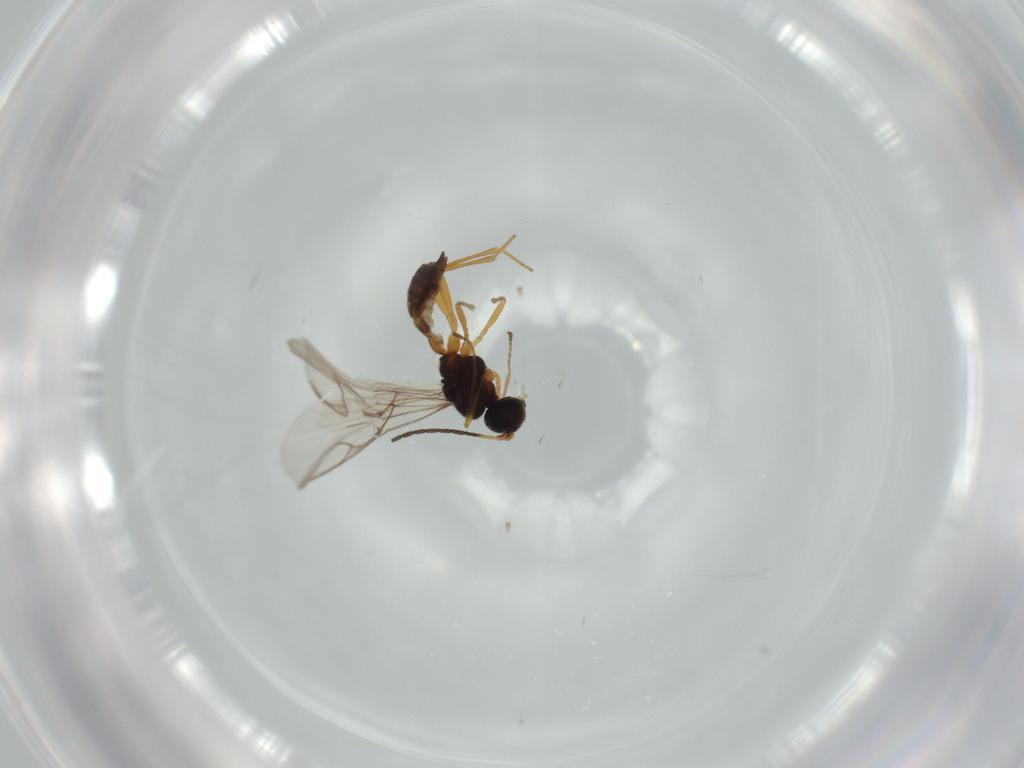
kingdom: Animalia
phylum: Arthropoda
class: Insecta
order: Hymenoptera
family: Braconidae
